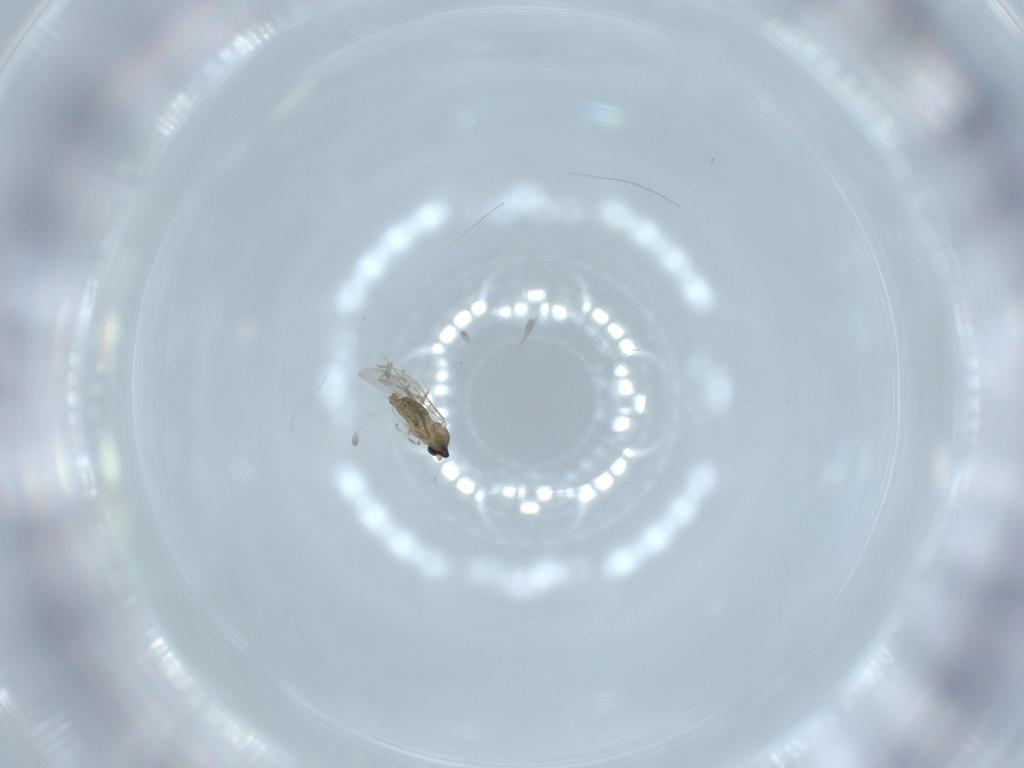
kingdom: Animalia
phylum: Arthropoda
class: Insecta
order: Diptera
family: Cecidomyiidae
